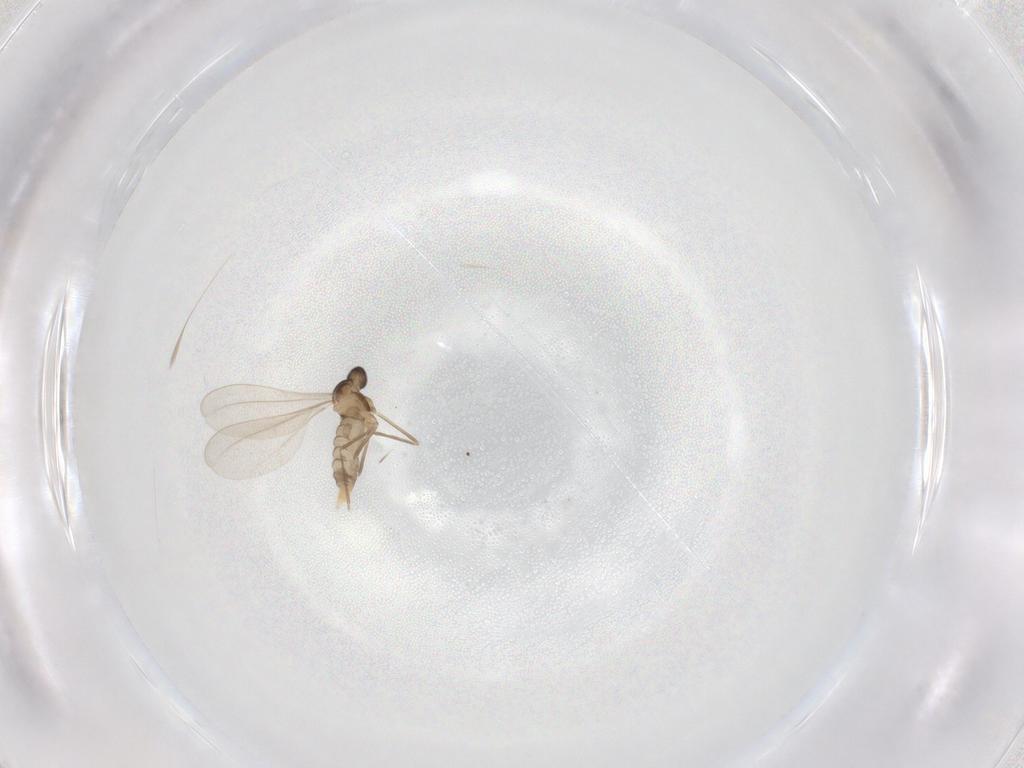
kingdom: Animalia
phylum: Arthropoda
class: Insecta
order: Diptera
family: Cecidomyiidae
